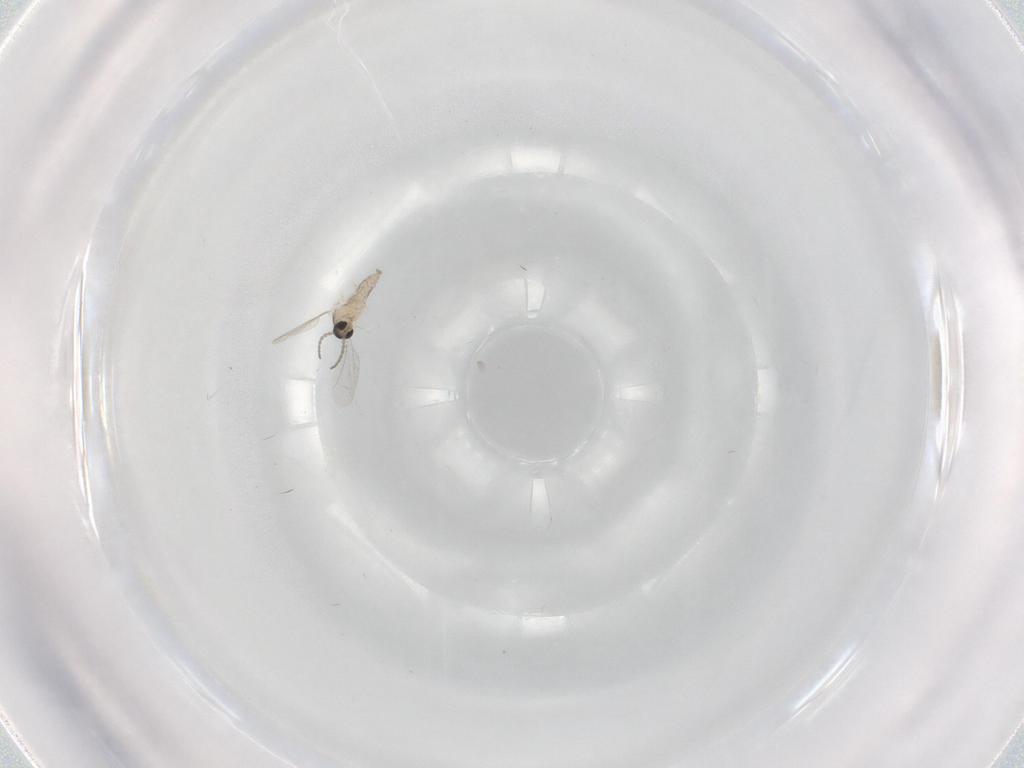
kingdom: Animalia
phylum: Arthropoda
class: Insecta
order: Diptera
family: Cecidomyiidae
